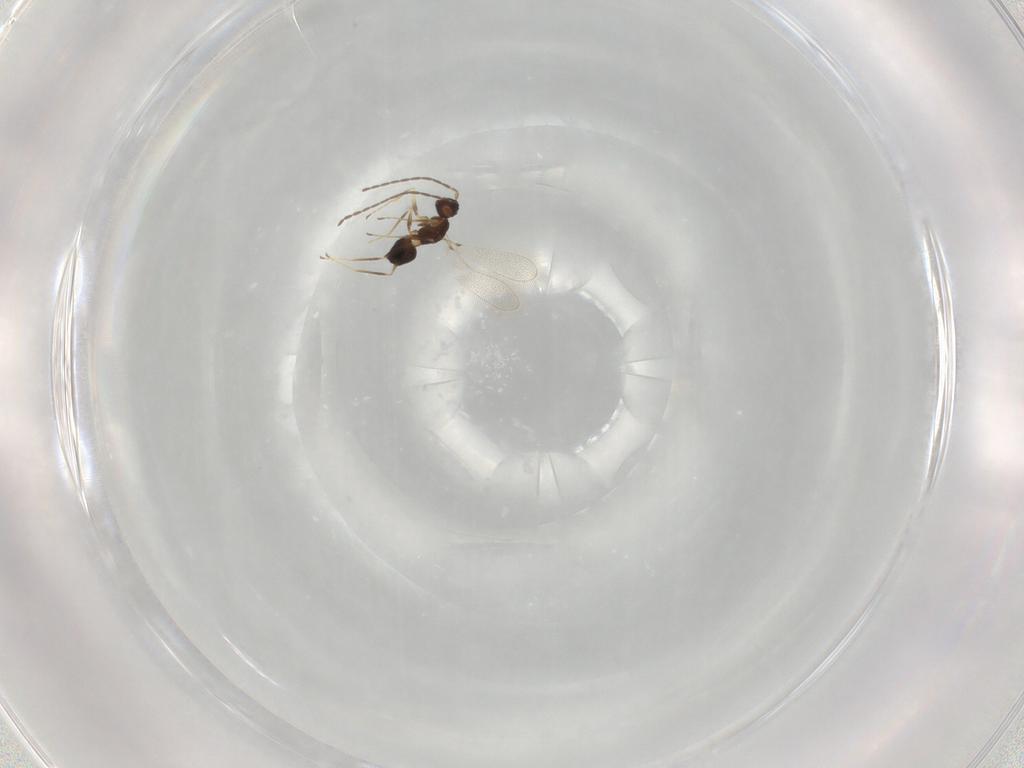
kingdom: Animalia
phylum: Arthropoda
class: Insecta
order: Hymenoptera
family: Mymaridae
